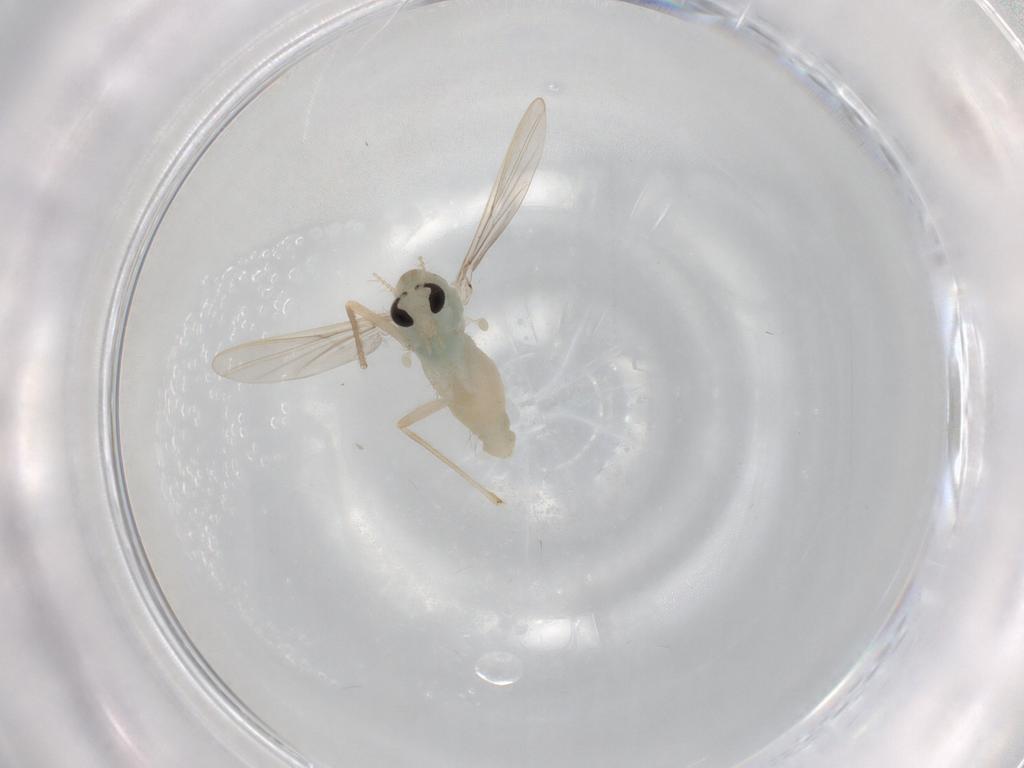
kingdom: Animalia
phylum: Arthropoda
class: Insecta
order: Diptera
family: Chironomidae
